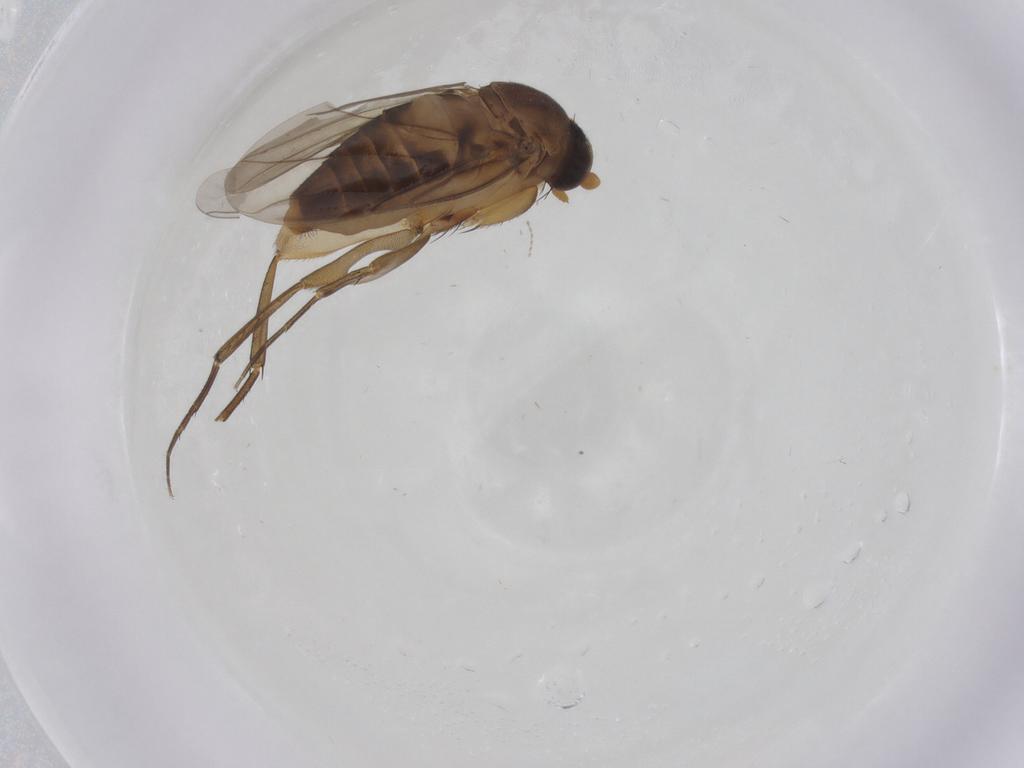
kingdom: Animalia
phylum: Arthropoda
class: Insecta
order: Diptera
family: Phoridae
